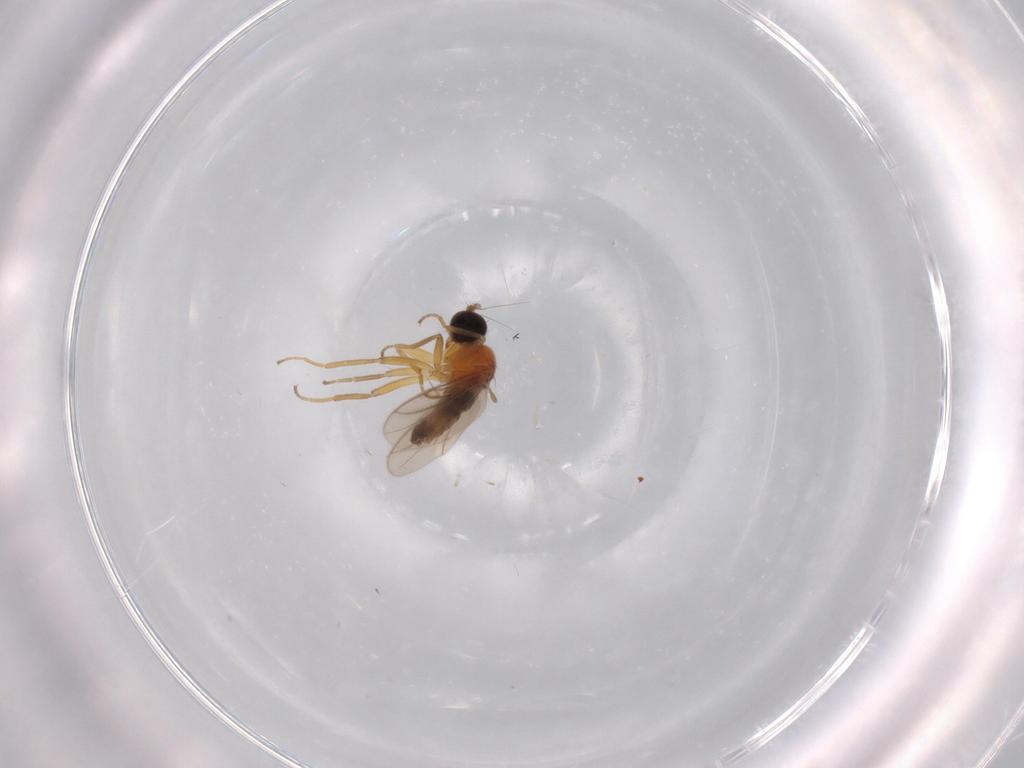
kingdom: Animalia
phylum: Arthropoda
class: Insecta
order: Diptera
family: Hybotidae
